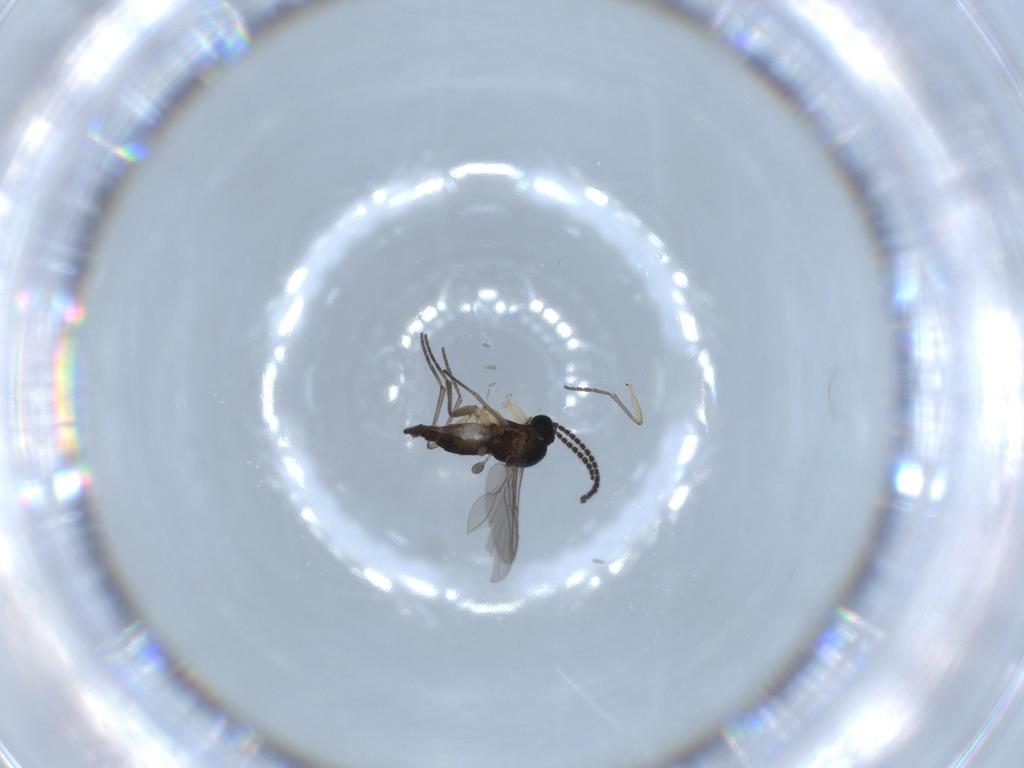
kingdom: Animalia
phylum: Arthropoda
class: Insecta
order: Diptera
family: Sciaridae
